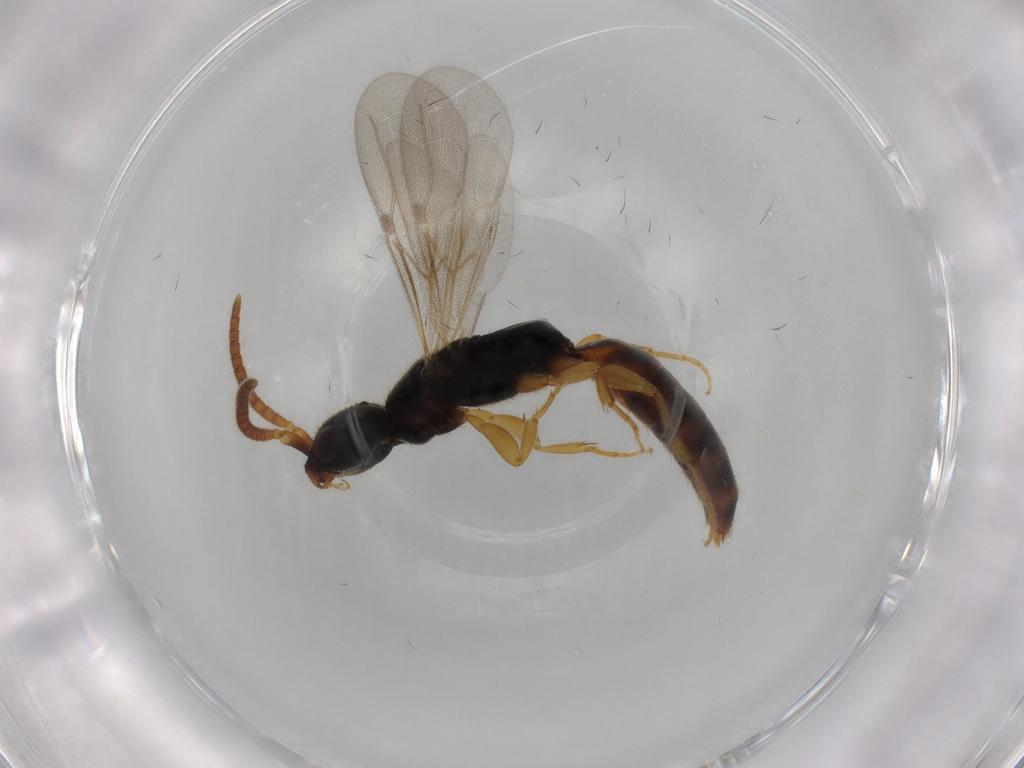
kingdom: Animalia
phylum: Arthropoda
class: Insecta
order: Hymenoptera
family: Bethylidae
